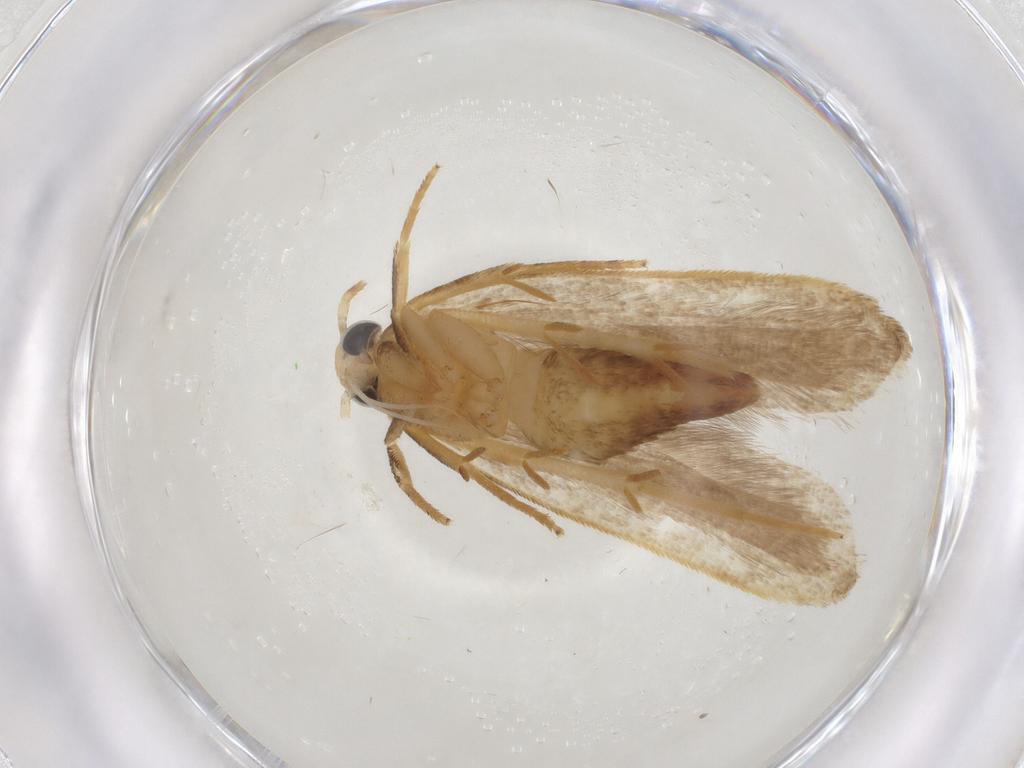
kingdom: Animalia
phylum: Arthropoda
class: Insecta
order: Lepidoptera
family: Gelechiidae
